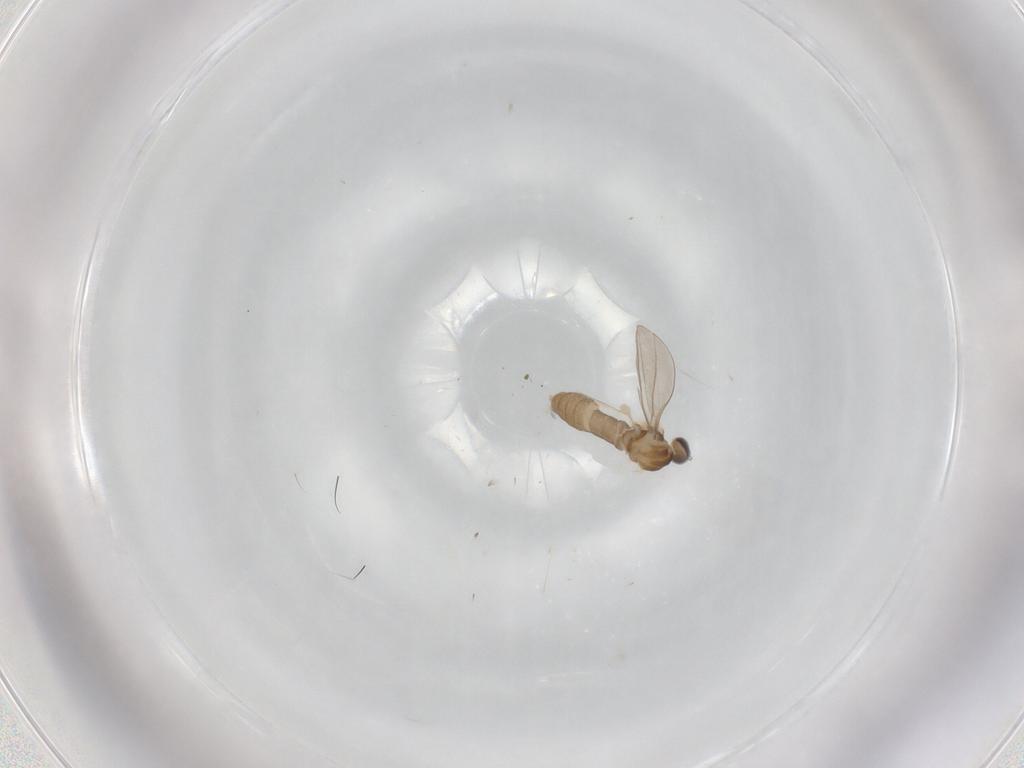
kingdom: Animalia
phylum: Arthropoda
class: Insecta
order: Diptera
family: Cecidomyiidae
